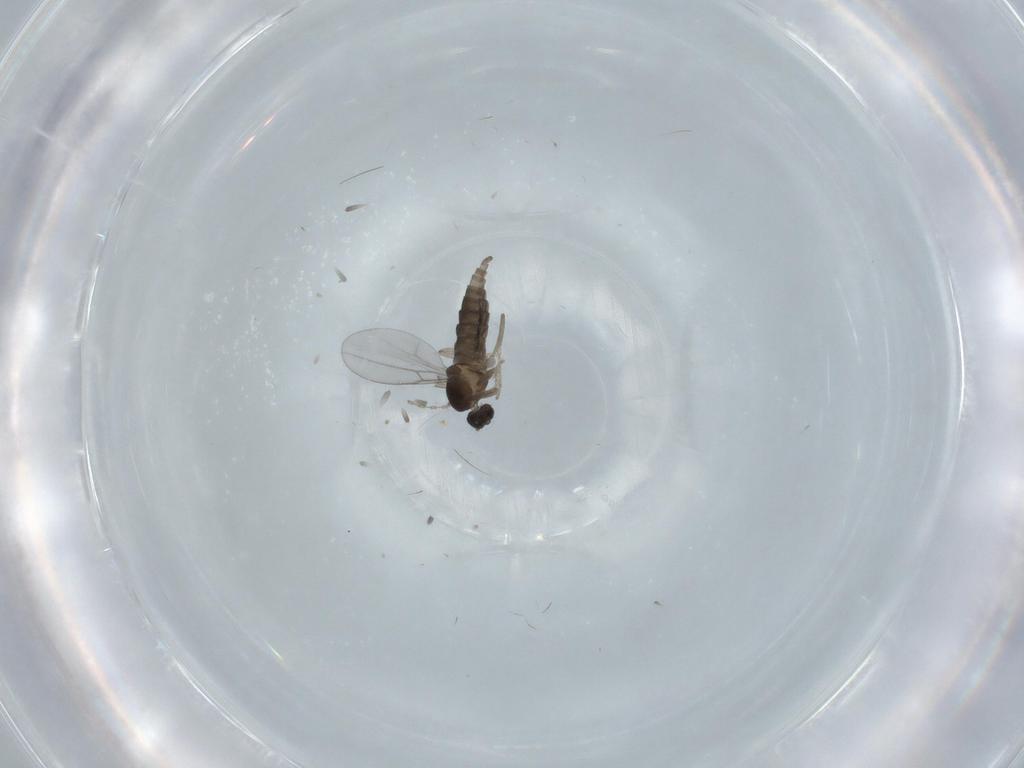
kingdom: Animalia
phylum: Arthropoda
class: Insecta
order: Diptera
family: Cecidomyiidae
